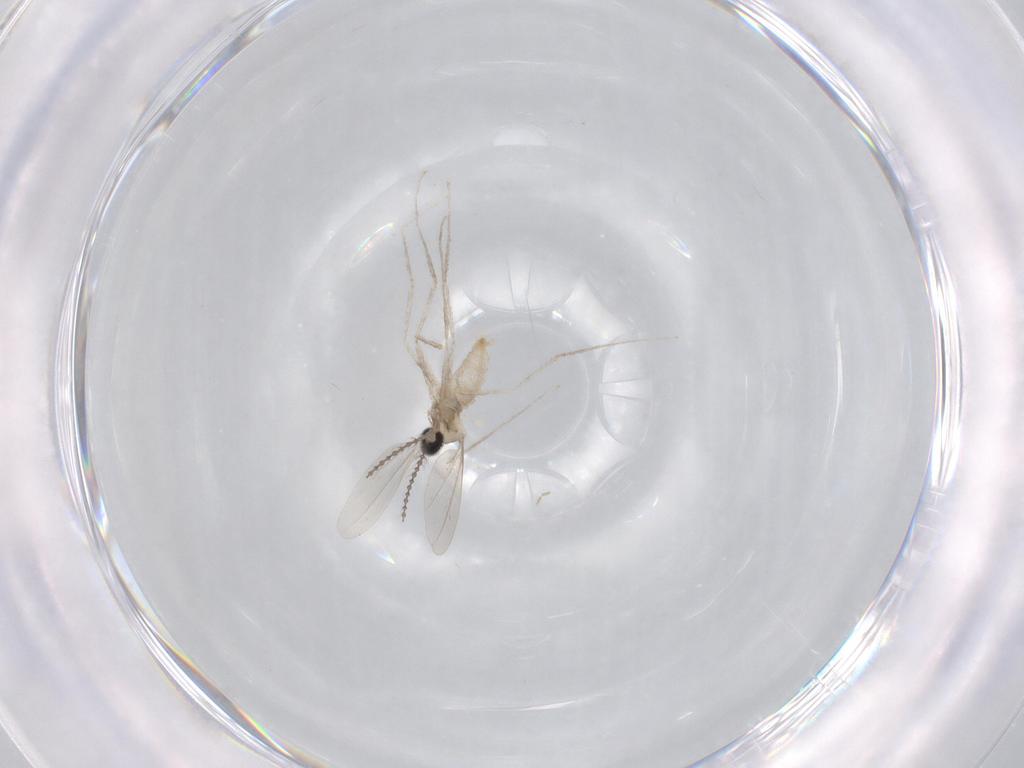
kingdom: Animalia
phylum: Arthropoda
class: Insecta
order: Diptera
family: Cecidomyiidae
